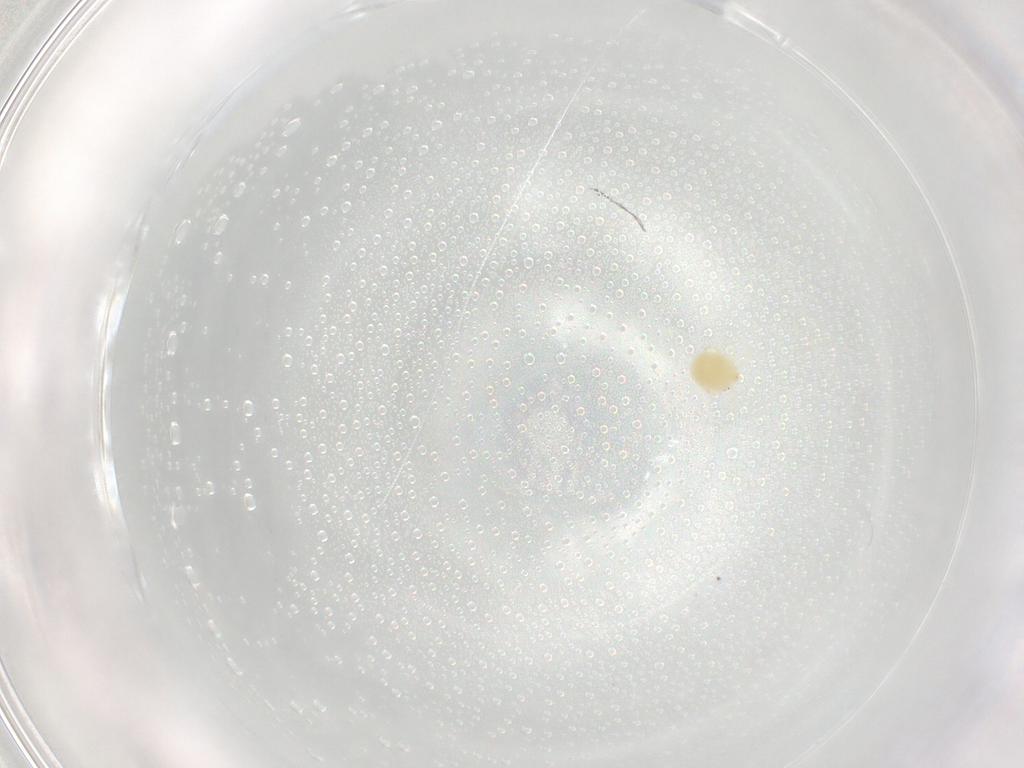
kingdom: Animalia
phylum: Arthropoda
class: Arachnida
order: Trombidiformes
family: Hydryphantidae
